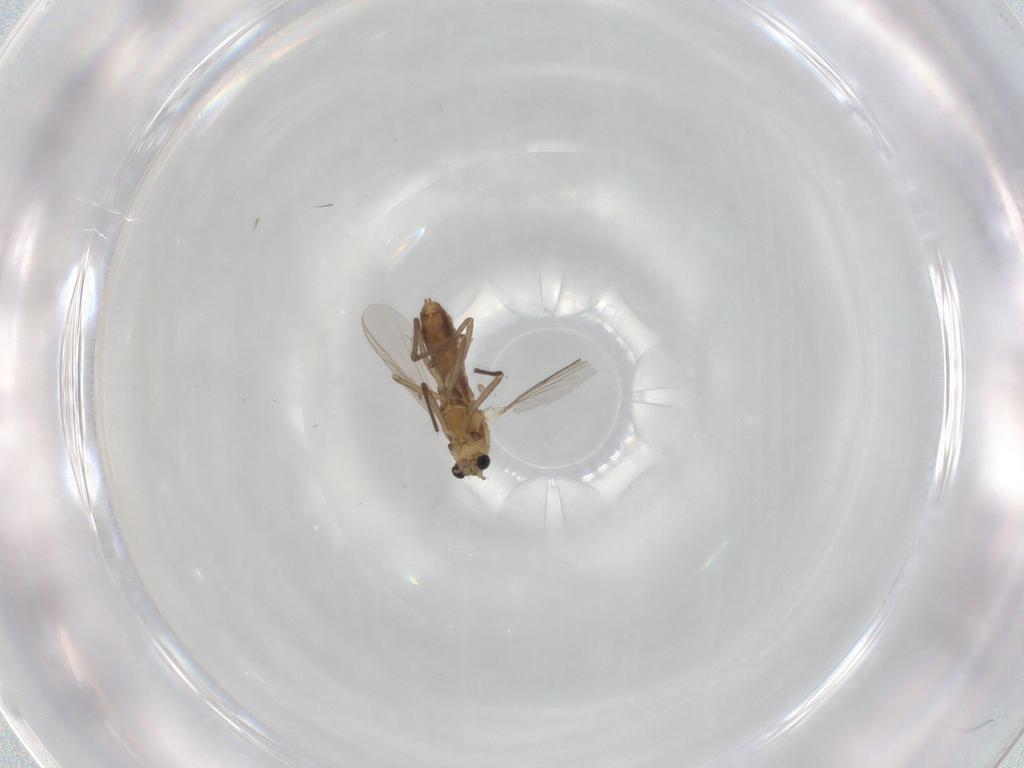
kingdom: Animalia
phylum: Arthropoda
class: Insecta
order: Diptera
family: Chironomidae
